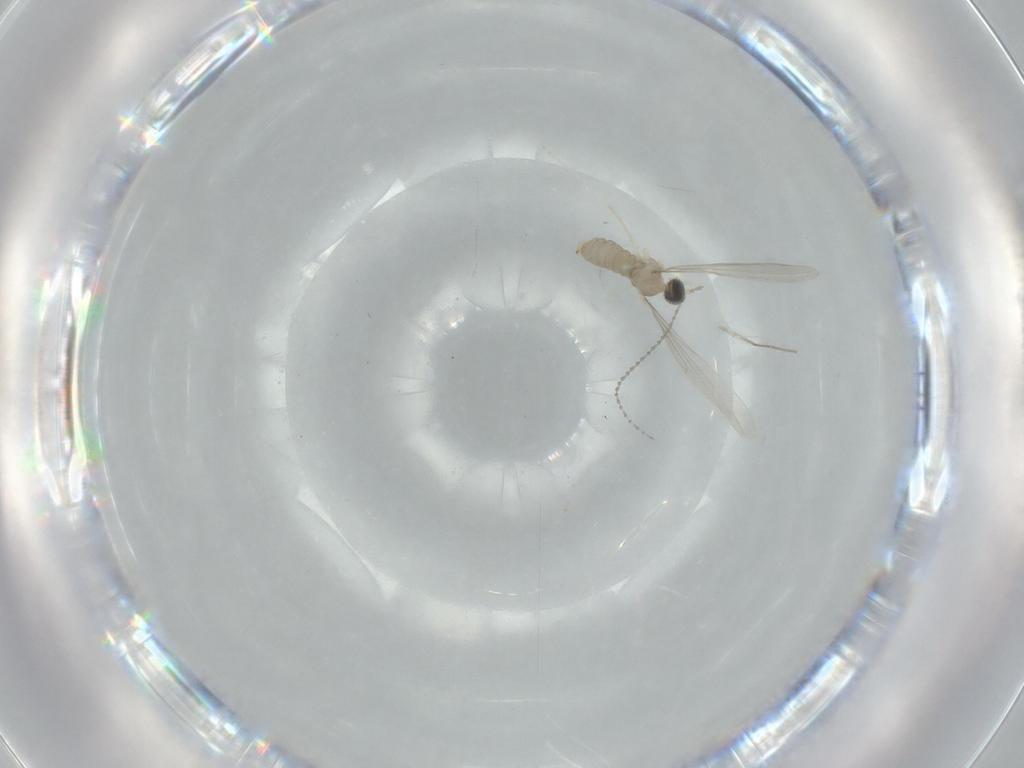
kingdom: Animalia
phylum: Arthropoda
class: Insecta
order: Diptera
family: Cecidomyiidae
